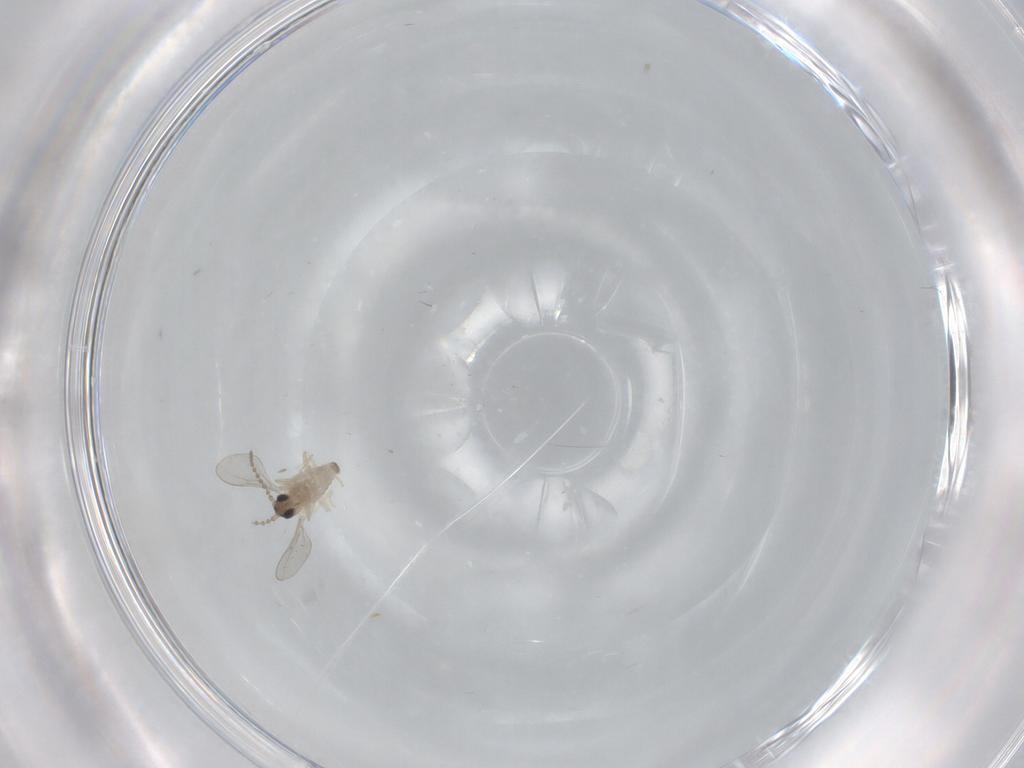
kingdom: Animalia
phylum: Arthropoda
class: Insecta
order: Diptera
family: Cecidomyiidae
